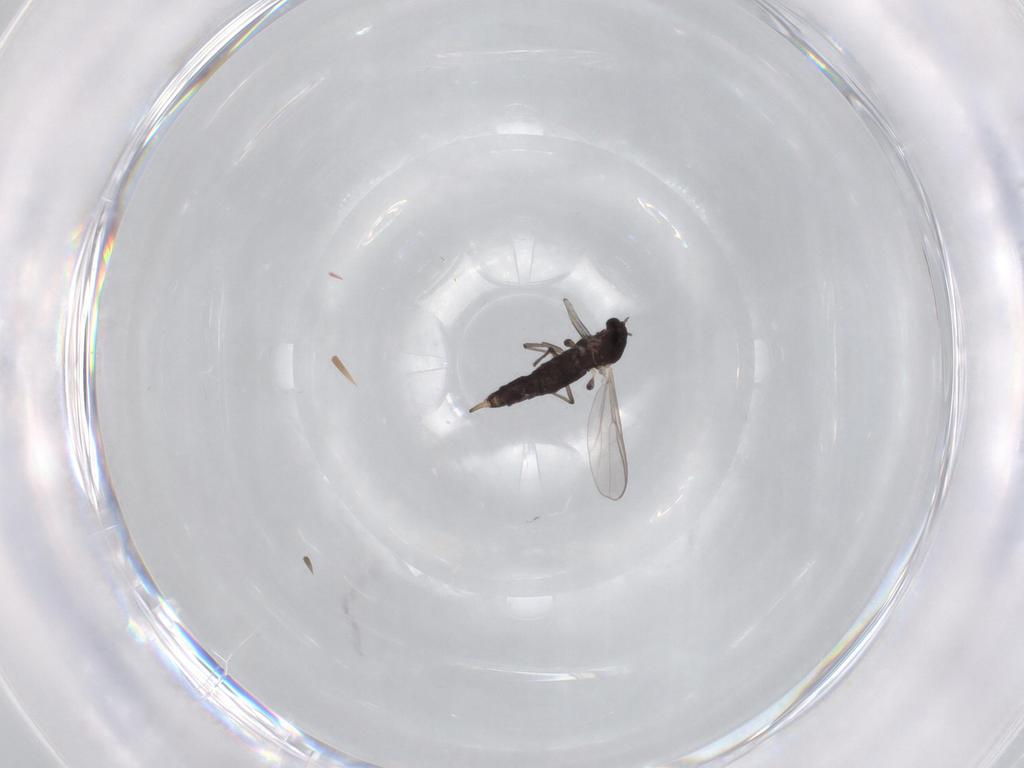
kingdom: Animalia
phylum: Arthropoda
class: Insecta
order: Diptera
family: Chironomidae
